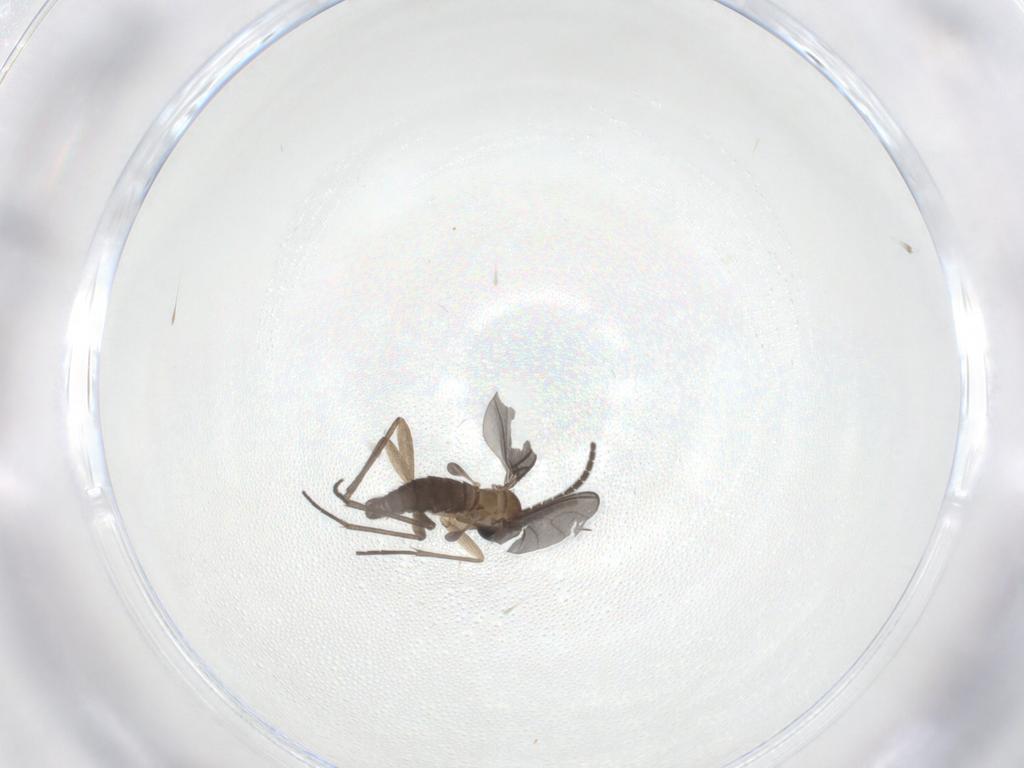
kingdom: Animalia
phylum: Arthropoda
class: Insecta
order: Diptera
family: Sciaridae
